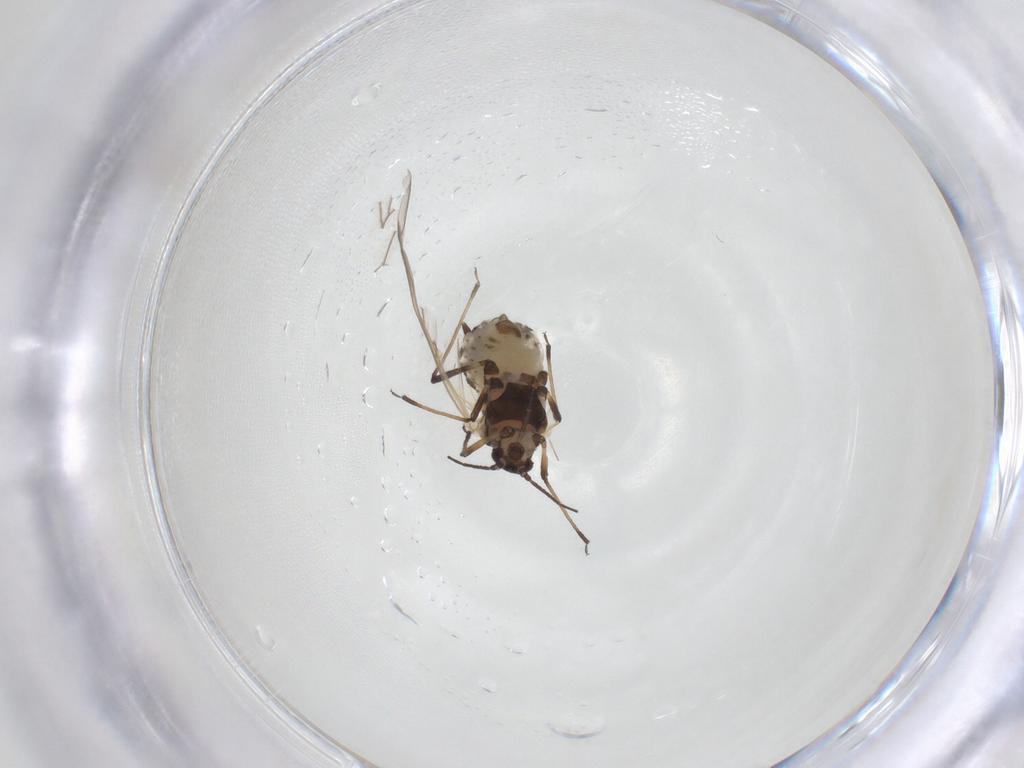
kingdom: Animalia
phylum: Arthropoda
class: Insecta
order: Hemiptera
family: Aphididae
